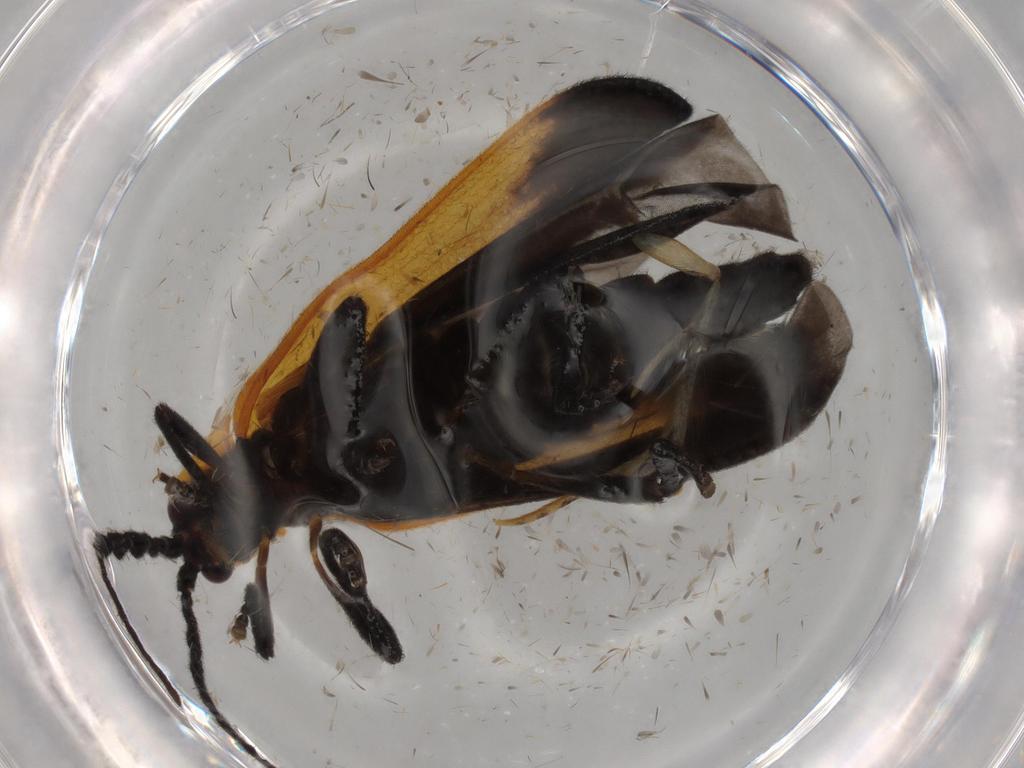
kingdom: Animalia
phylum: Arthropoda
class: Insecta
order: Coleoptera
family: Lycidae
